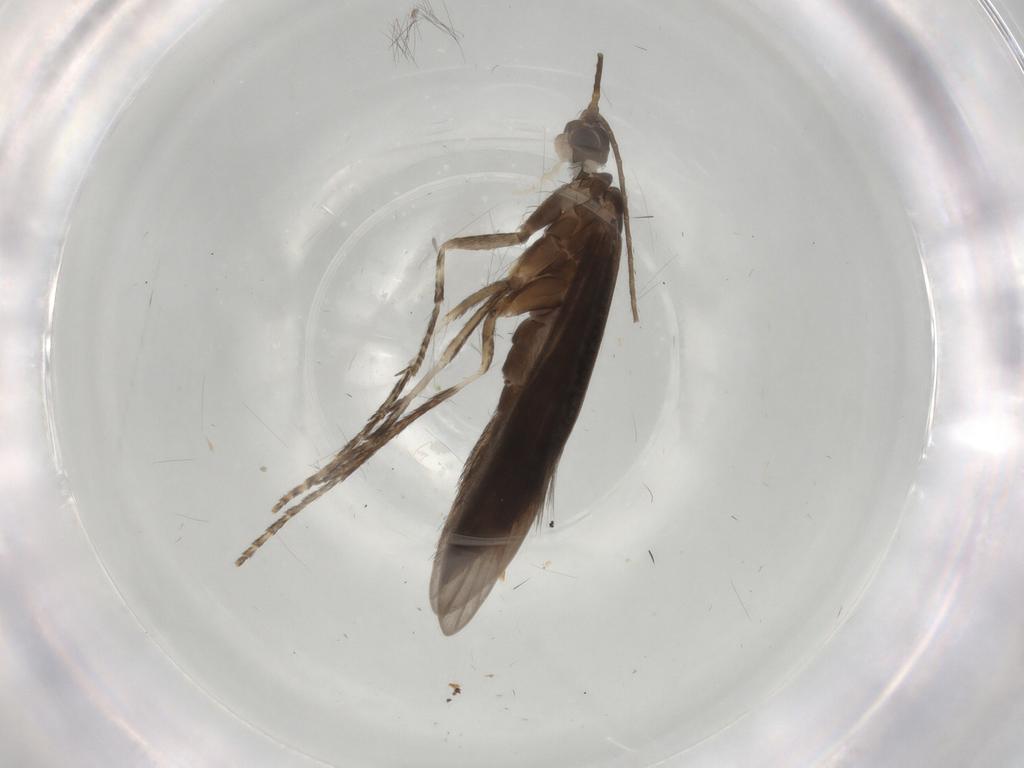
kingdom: Animalia
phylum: Arthropoda
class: Insecta
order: Trichoptera
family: Xiphocentronidae
